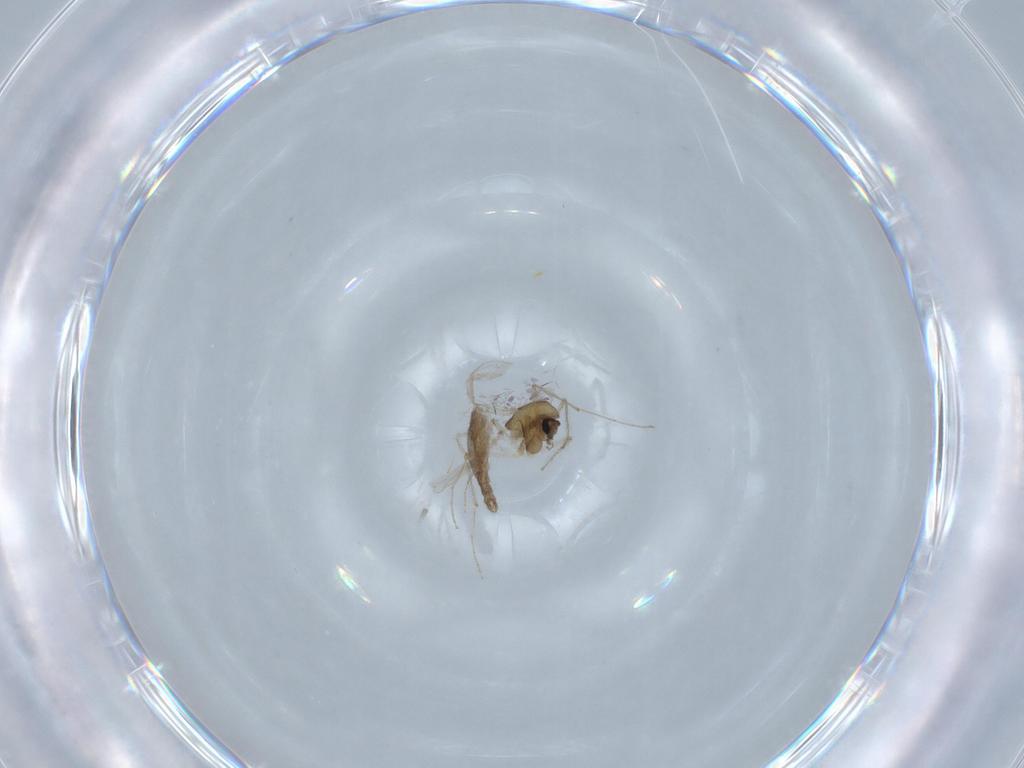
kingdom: Animalia
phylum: Arthropoda
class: Insecta
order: Diptera
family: Chironomidae
